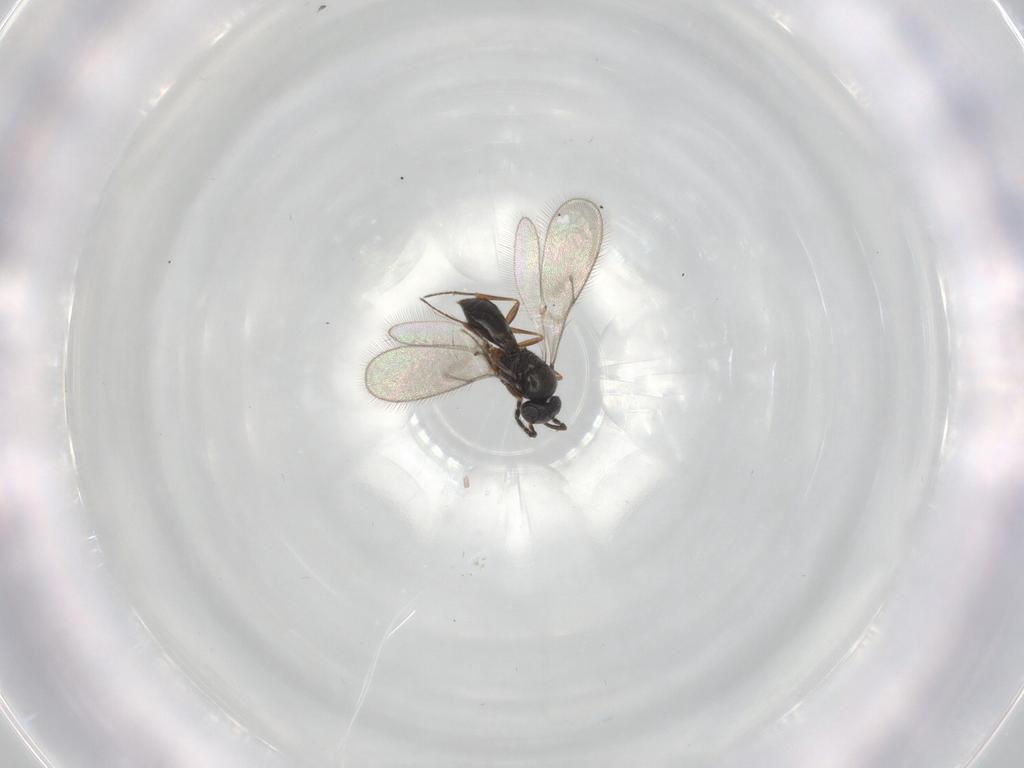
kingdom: Animalia
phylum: Arthropoda
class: Insecta
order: Hymenoptera
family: Scelionidae
